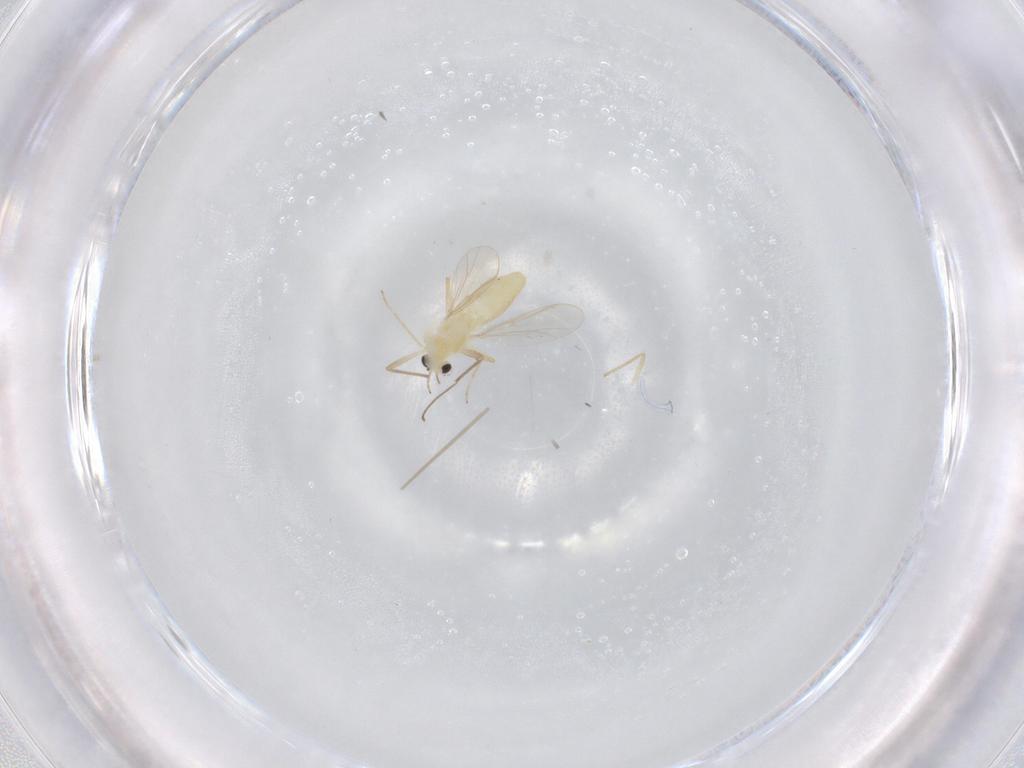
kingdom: Animalia
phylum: Arthropoda
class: Insecta
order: Diptera
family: Chironomidae
